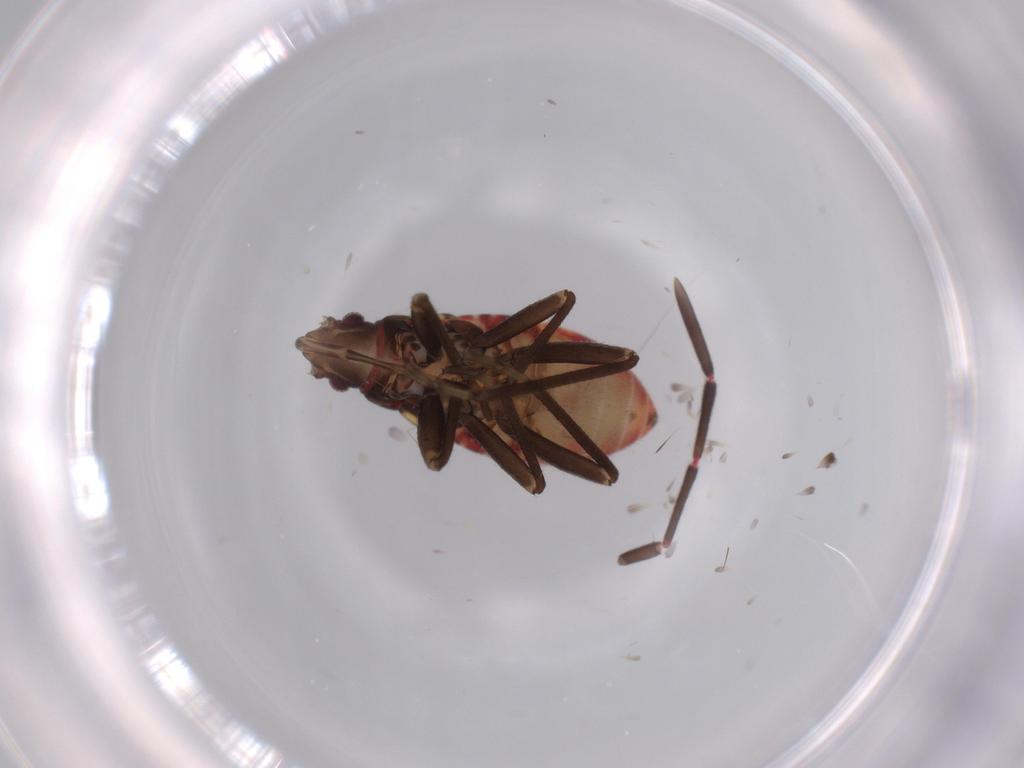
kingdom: Animalia
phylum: Arthropoda
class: Insecta
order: Hemiptera
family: Rhyparochromidae
